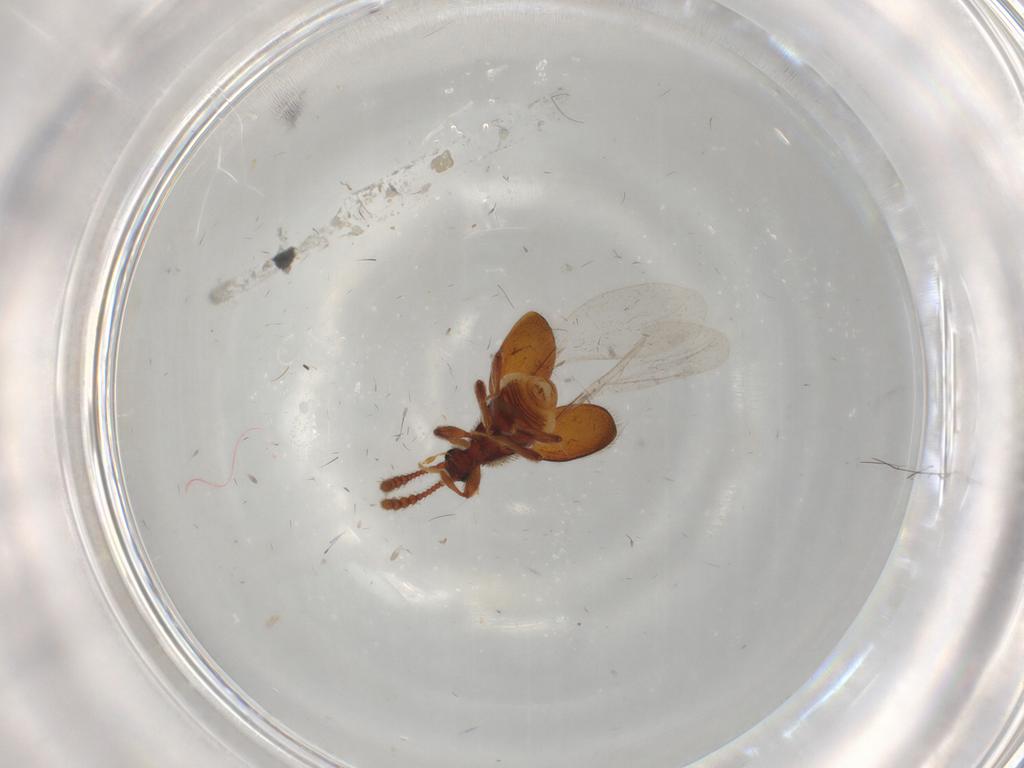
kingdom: Animalia
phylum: Arthropoda
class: Insecta
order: Coleoptera
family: Staphylinidae
